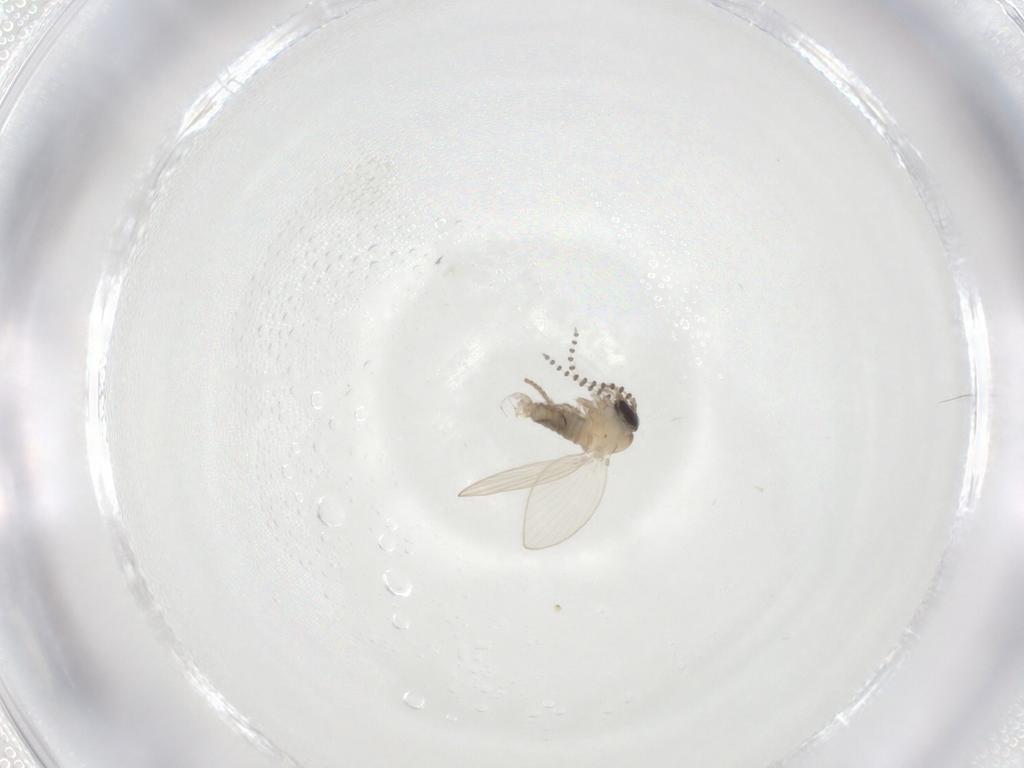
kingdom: Animalia
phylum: Arthropoda
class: Insecta
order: Diptera
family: Psychodidae
